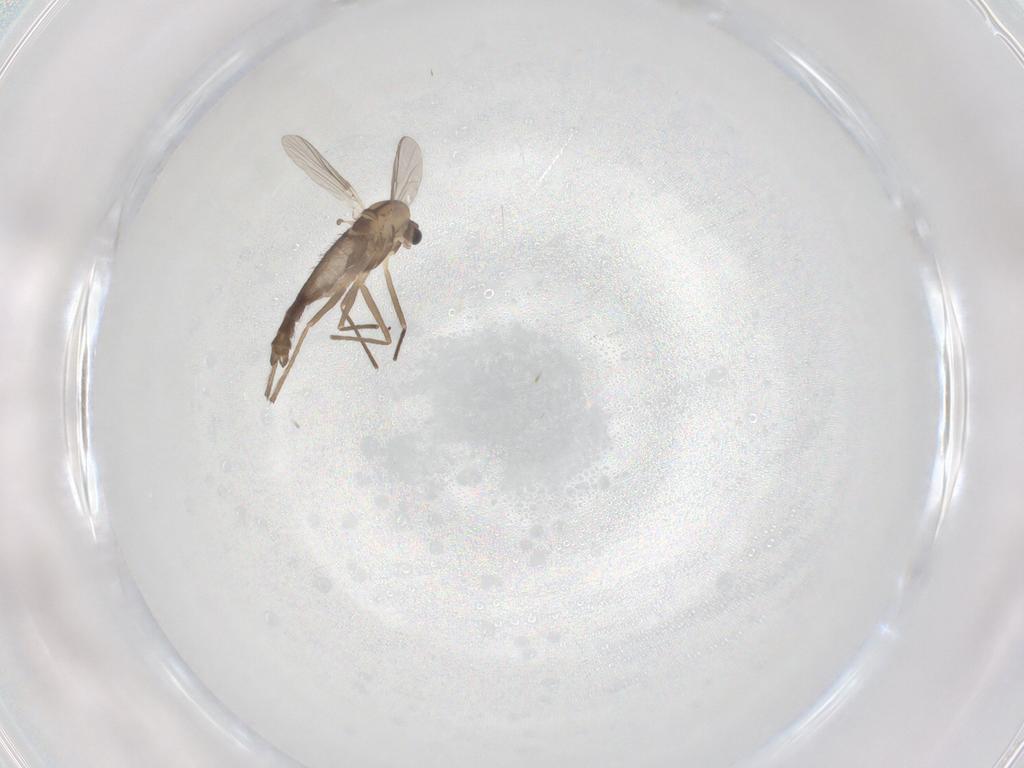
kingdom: Animalia
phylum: Arthropoda
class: Insecta
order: Diptera
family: Chironomidae
